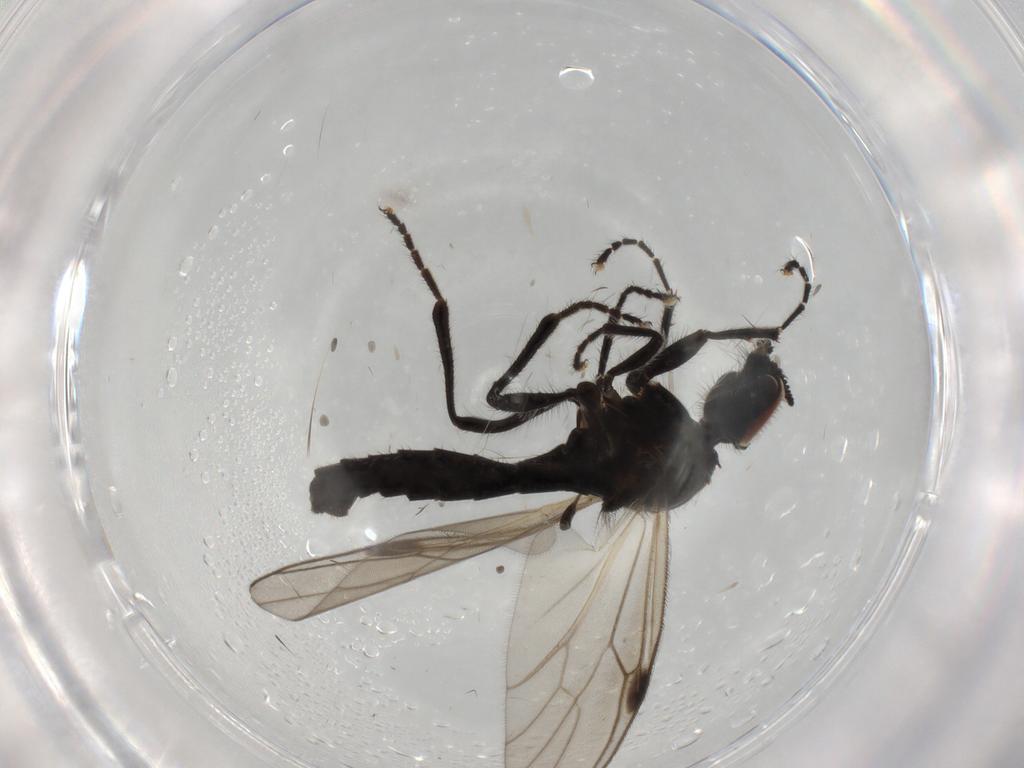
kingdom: Animalia
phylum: Arthropoda
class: Insecta
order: Diptera
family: Bibionidae
